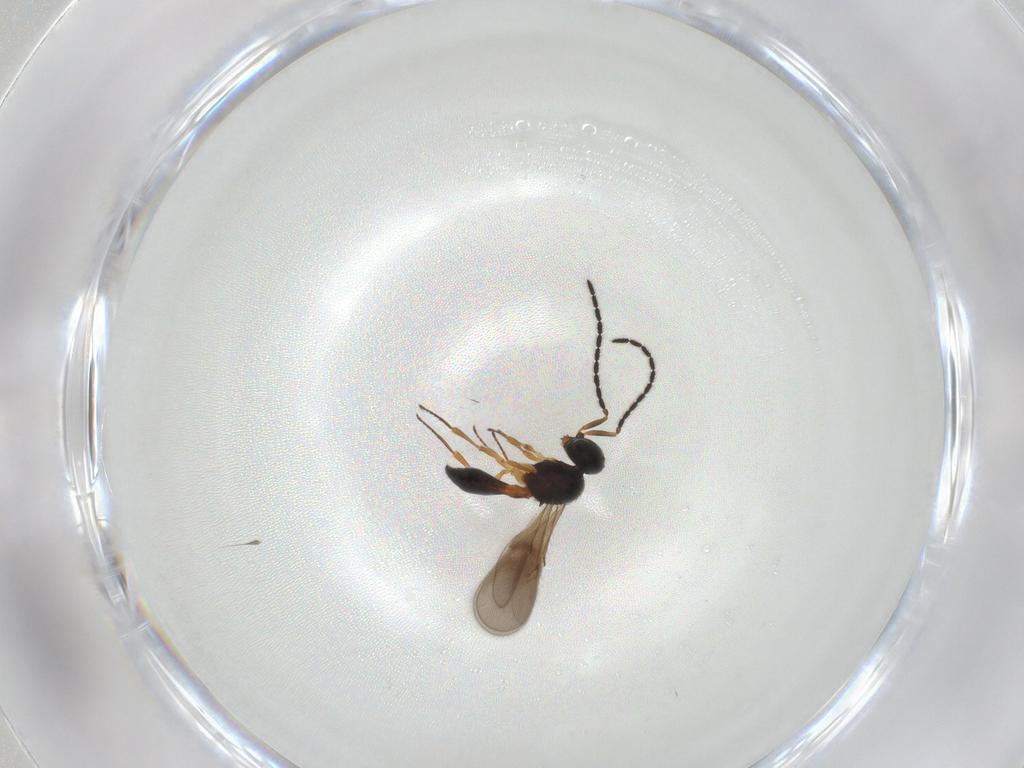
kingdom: Animalia
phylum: Arthropoda
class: Insecta
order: Hymenoptera
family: Scelionidae
